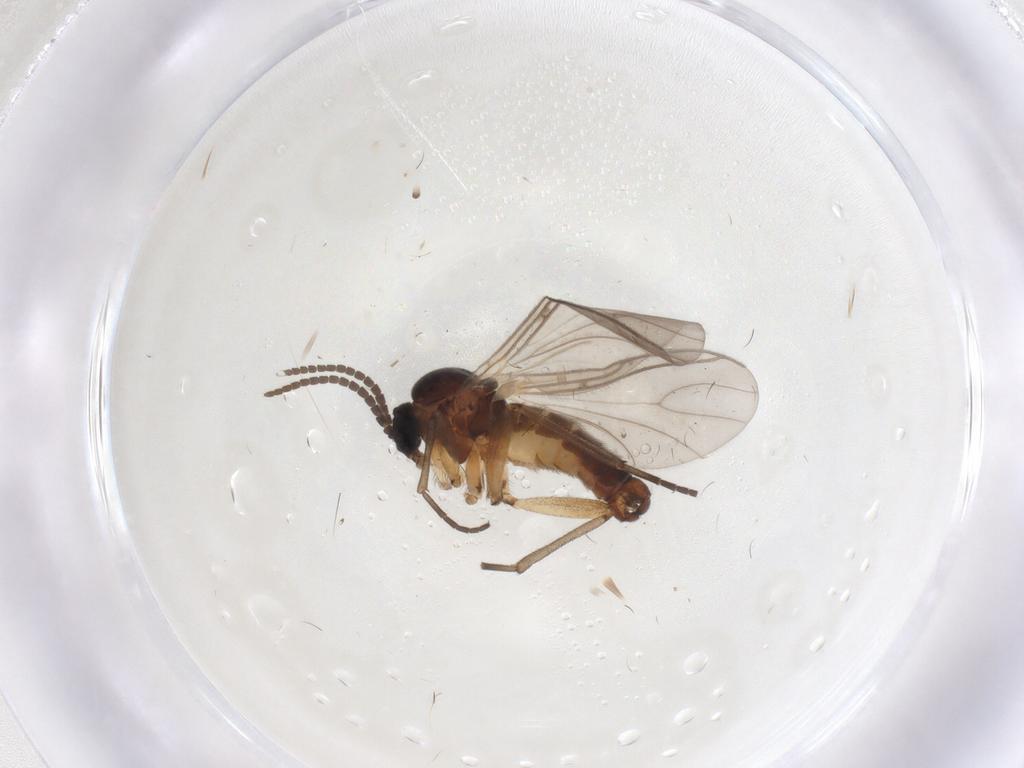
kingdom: Animalia
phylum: Arthropoda
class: Insecta
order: Diptera
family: Sciaridae
